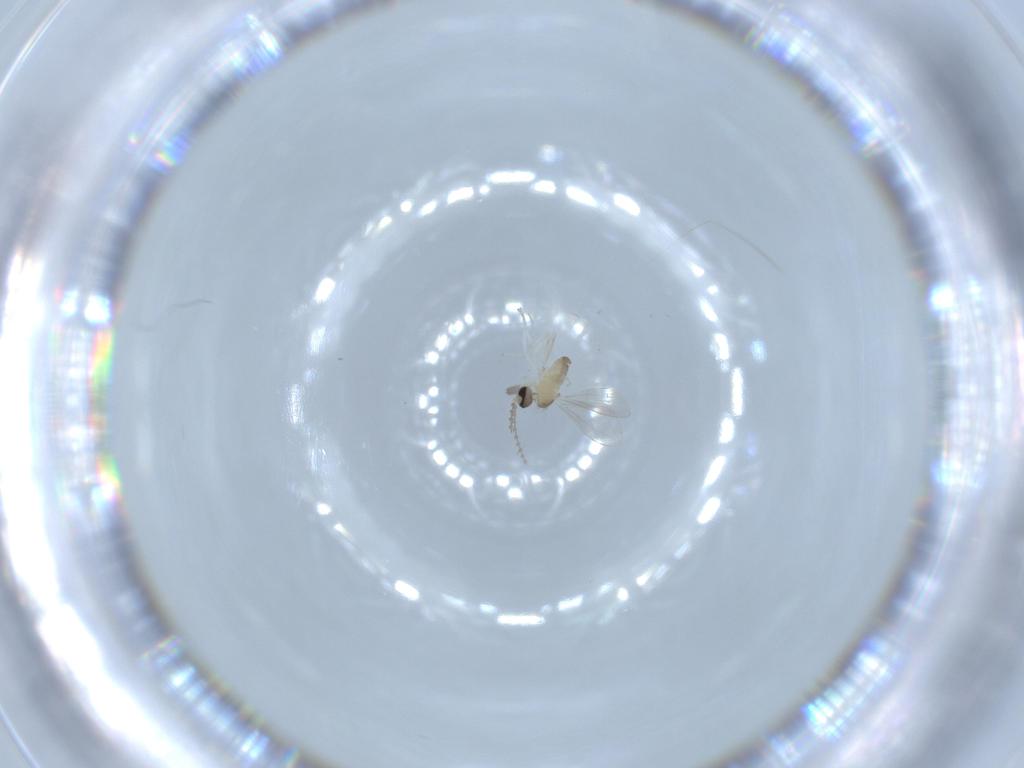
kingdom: Animalia
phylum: Arthropoda
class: Insecta
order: Diptera
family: Cecidomyiidae
